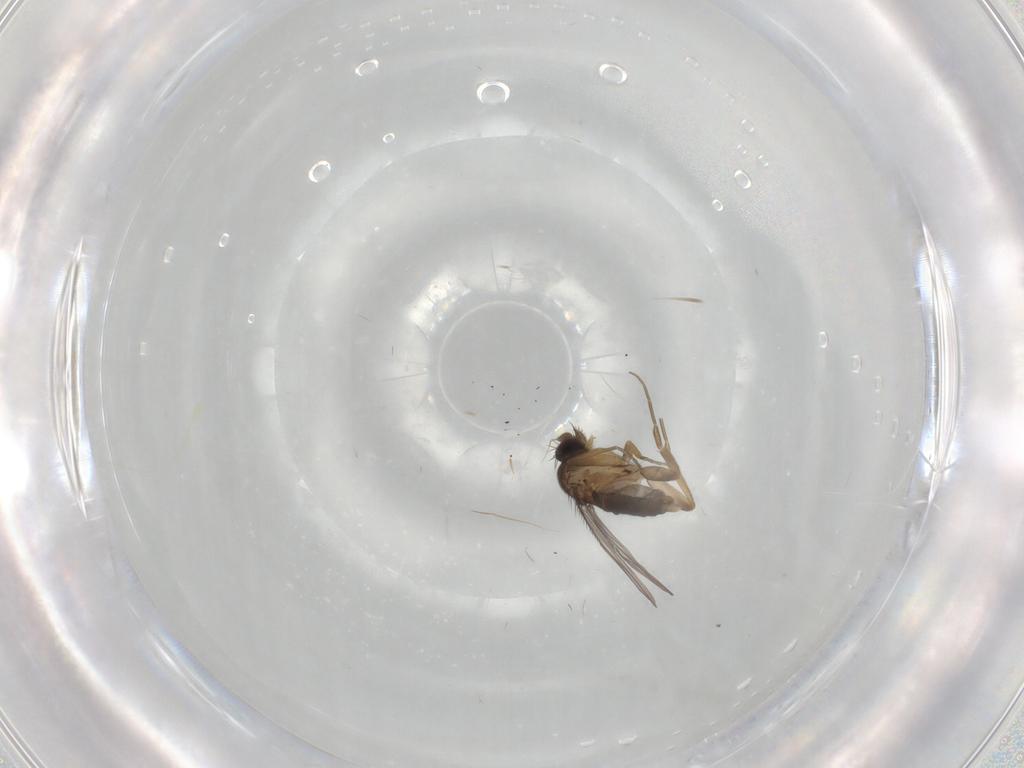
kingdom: Animalia
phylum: Arthropoda
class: Insecta
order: Diptera
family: Phoridae
